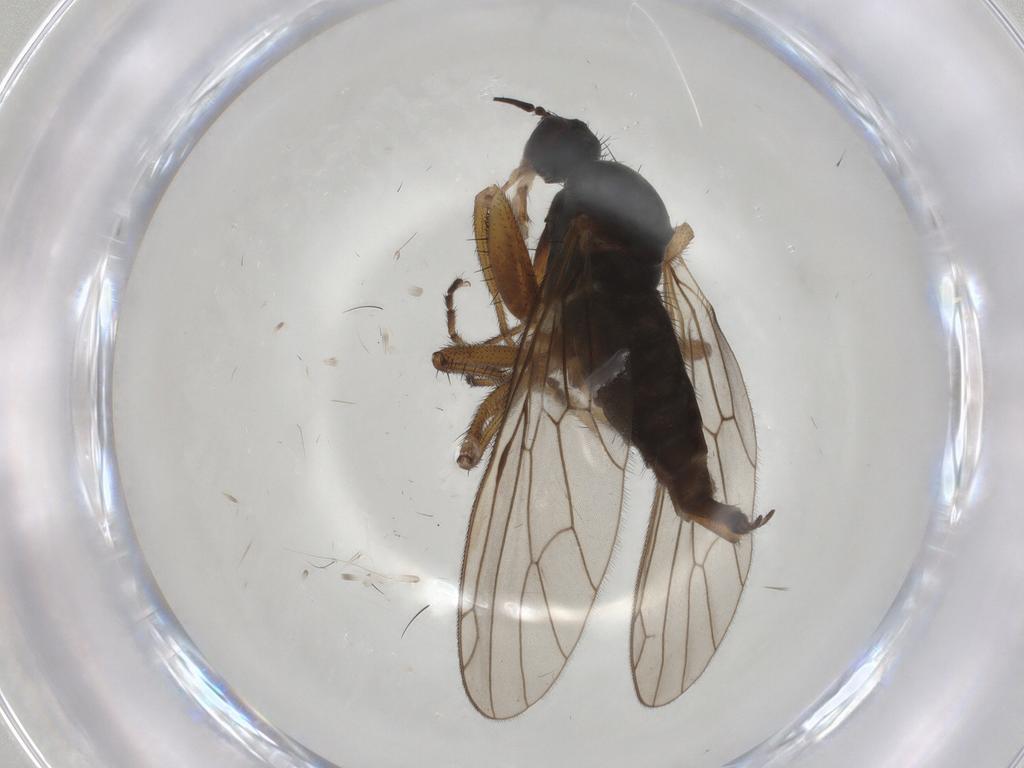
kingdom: Animalia
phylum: Arthropoda
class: Insecta
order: Diptera
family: Empididae
